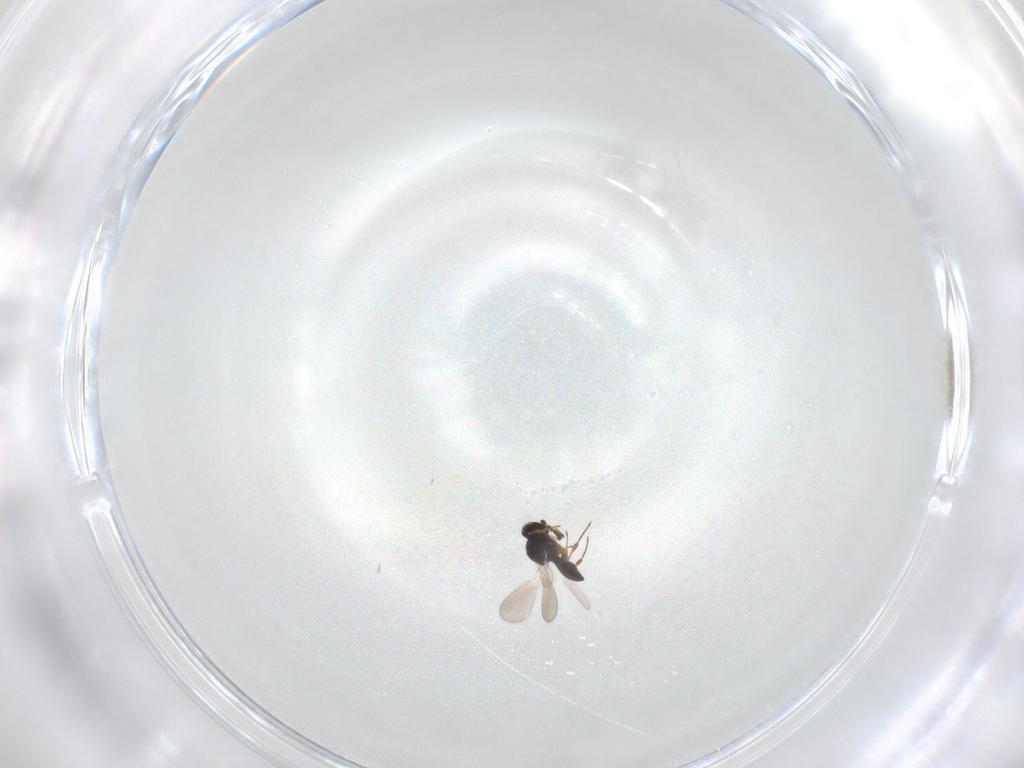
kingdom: Animalia
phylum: Arthropoda
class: Insecta
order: Hymenoptera
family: Platygastridae
